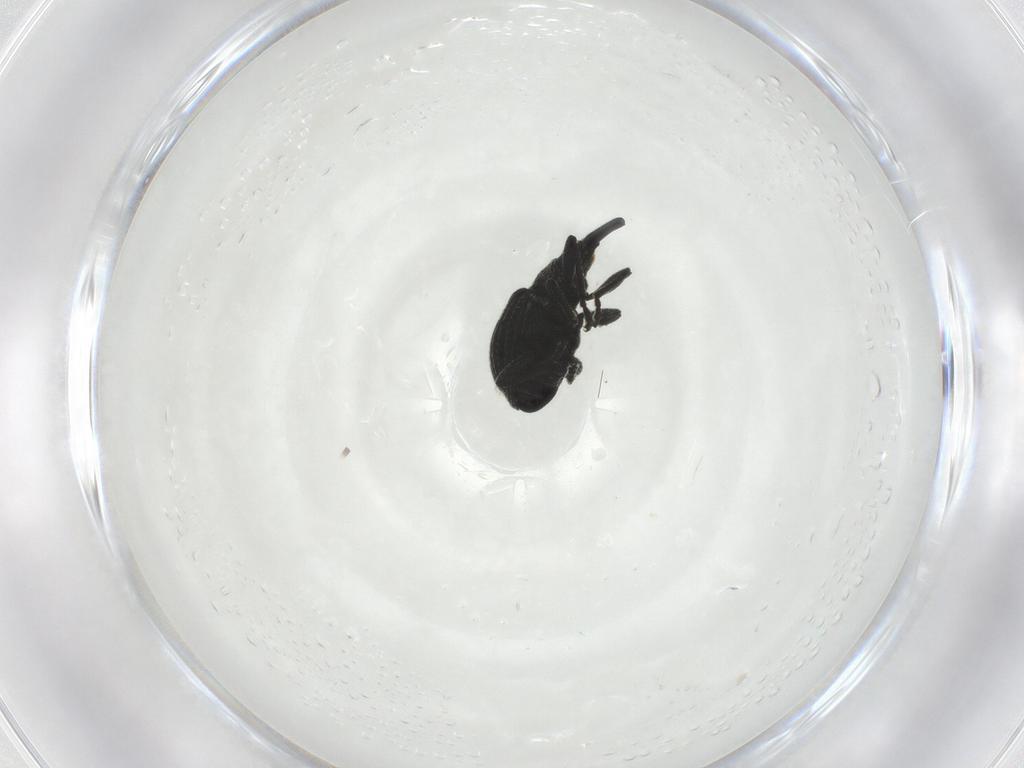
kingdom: Animalia
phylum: Arthropoda
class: Insecta
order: Coleoptera
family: Brentidae
